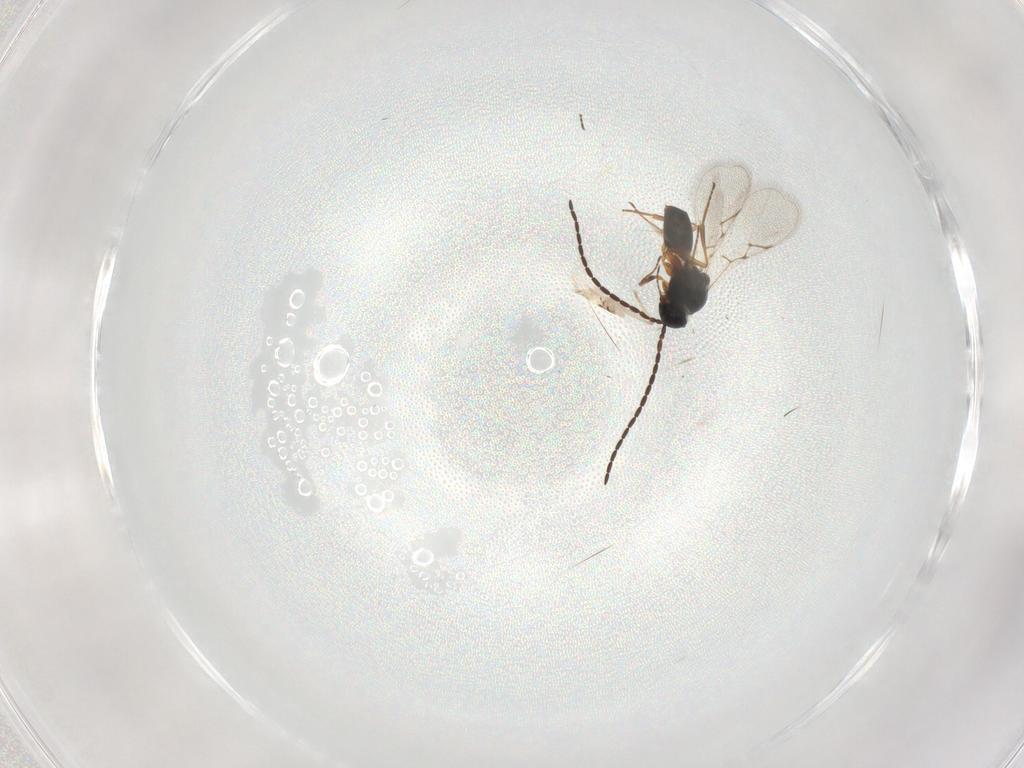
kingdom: Animalia
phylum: Arthropoda
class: Insecta
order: Hymenoptera
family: Figitidae
